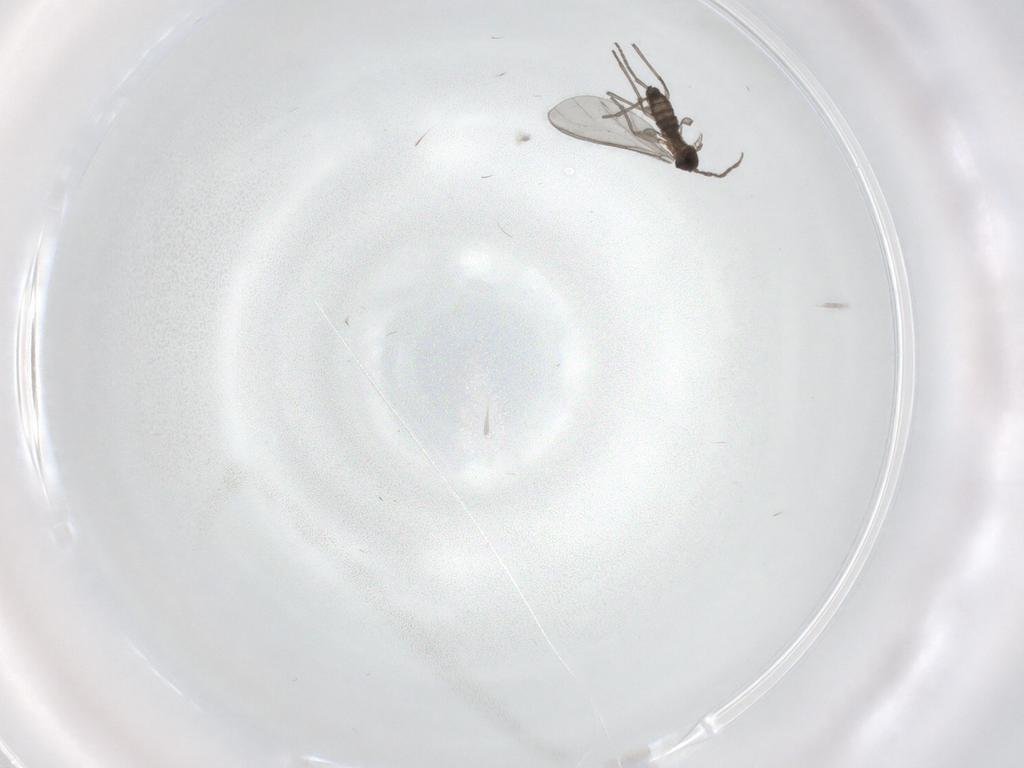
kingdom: Animalia
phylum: Arthropoda
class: Insecta
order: Diptera
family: Sciaridae
